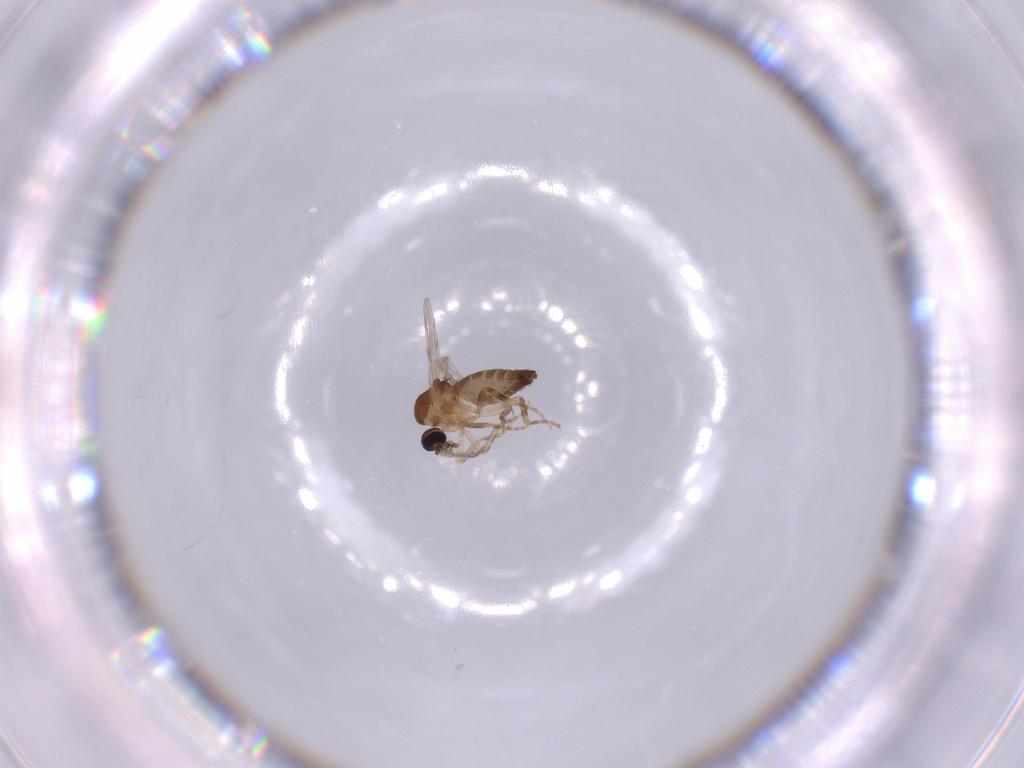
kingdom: Animalia
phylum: Arthropoda
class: Insecta
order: Diptera
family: Ceratopogonidae
